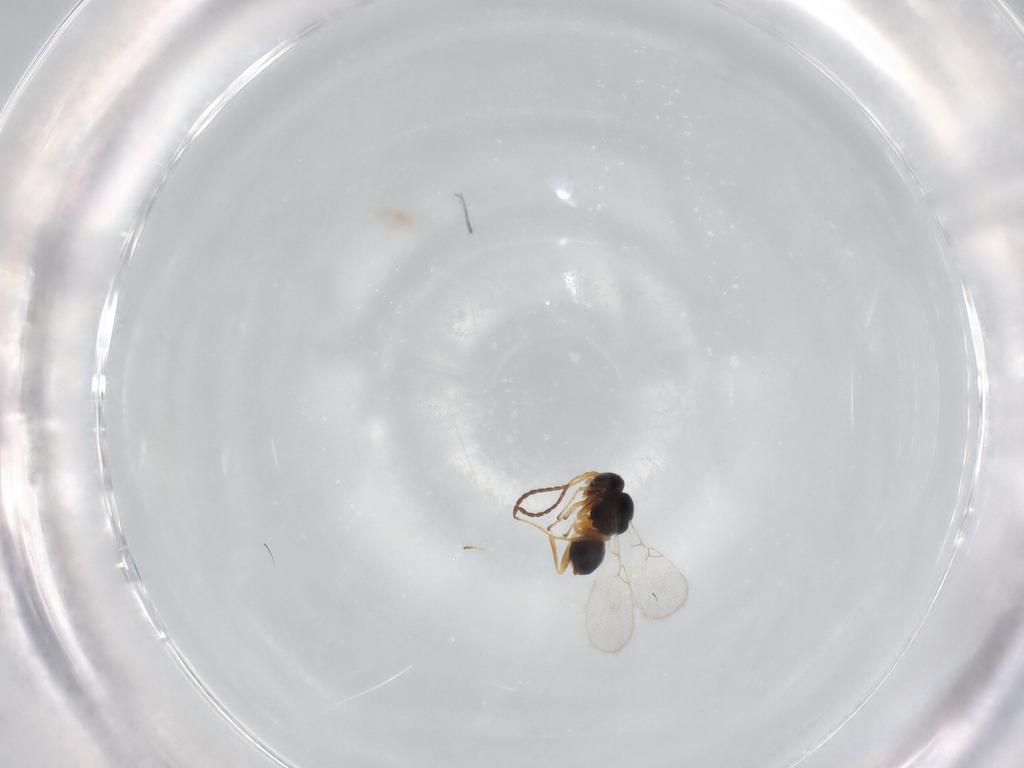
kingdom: Animalia
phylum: Arthropoda
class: Insecta
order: Hymenoptera
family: Figitidae
